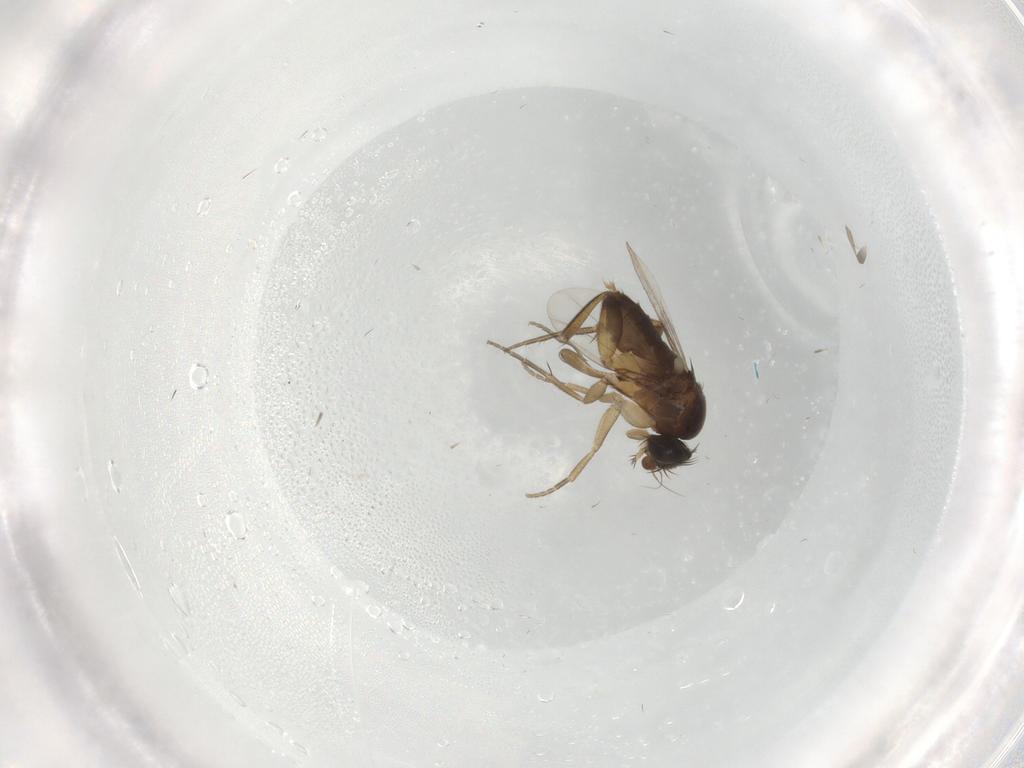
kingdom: Animalia
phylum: Arthropoda
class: Insecta
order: Diptera
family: Phoridae
